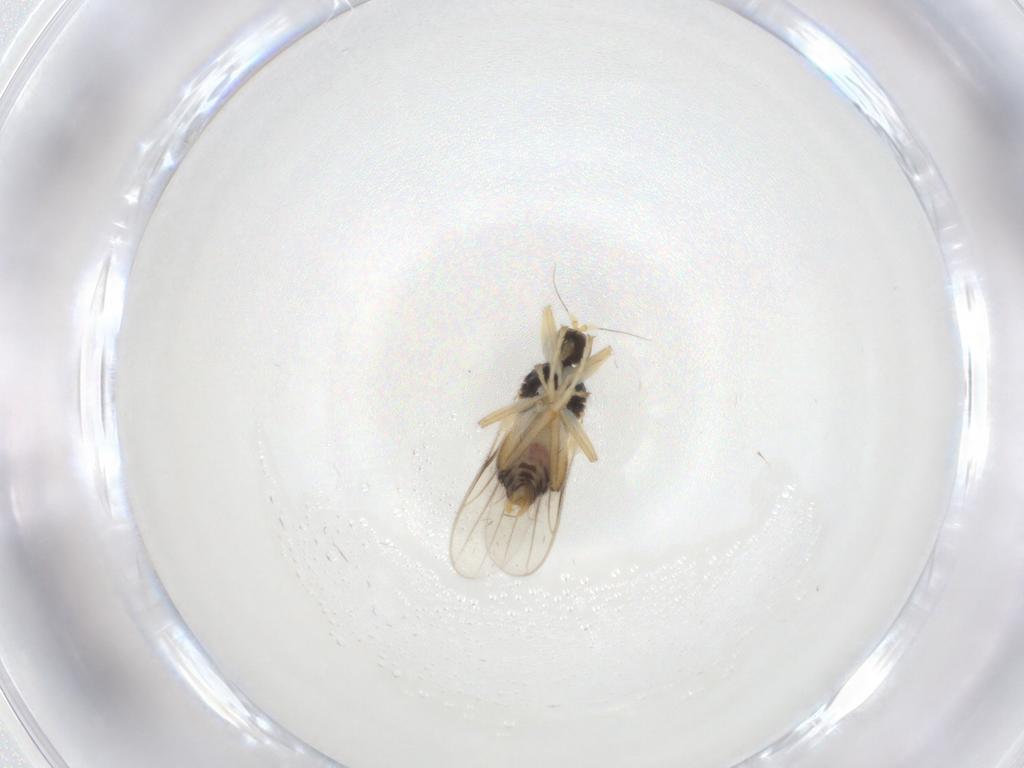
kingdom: Animalia
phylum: Arthropoda
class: Insecta
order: Diptera
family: Hybotidae
